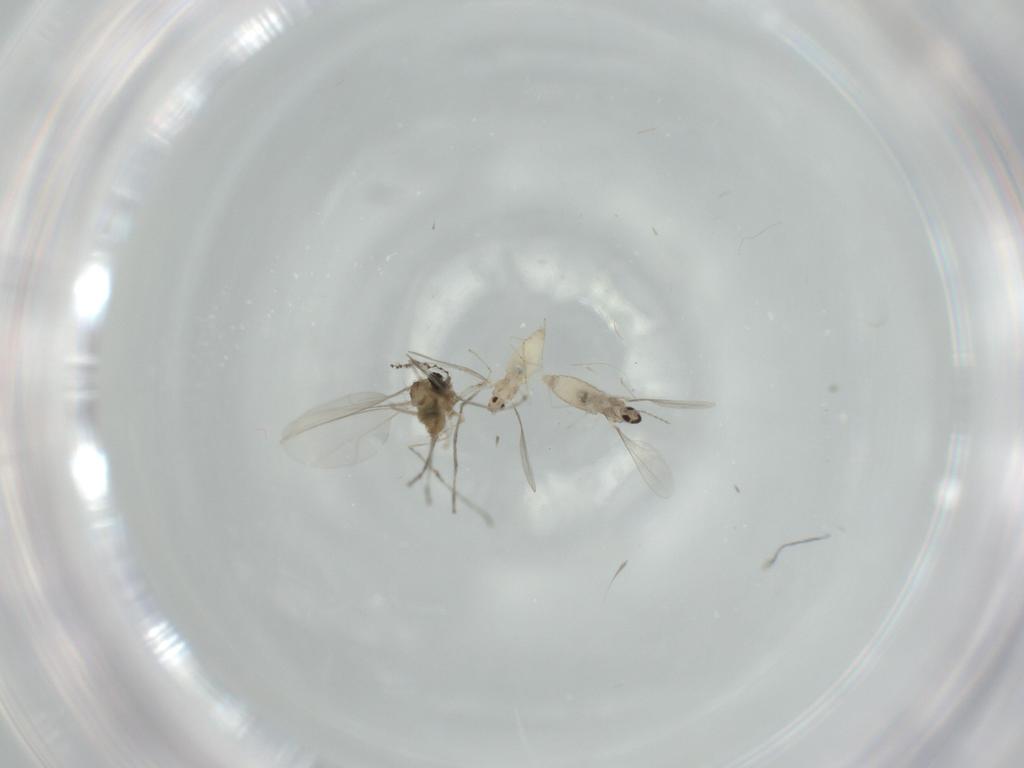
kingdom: Animalia
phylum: Arthropoda
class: Insecta
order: Diptera
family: Cecidomyiidae
